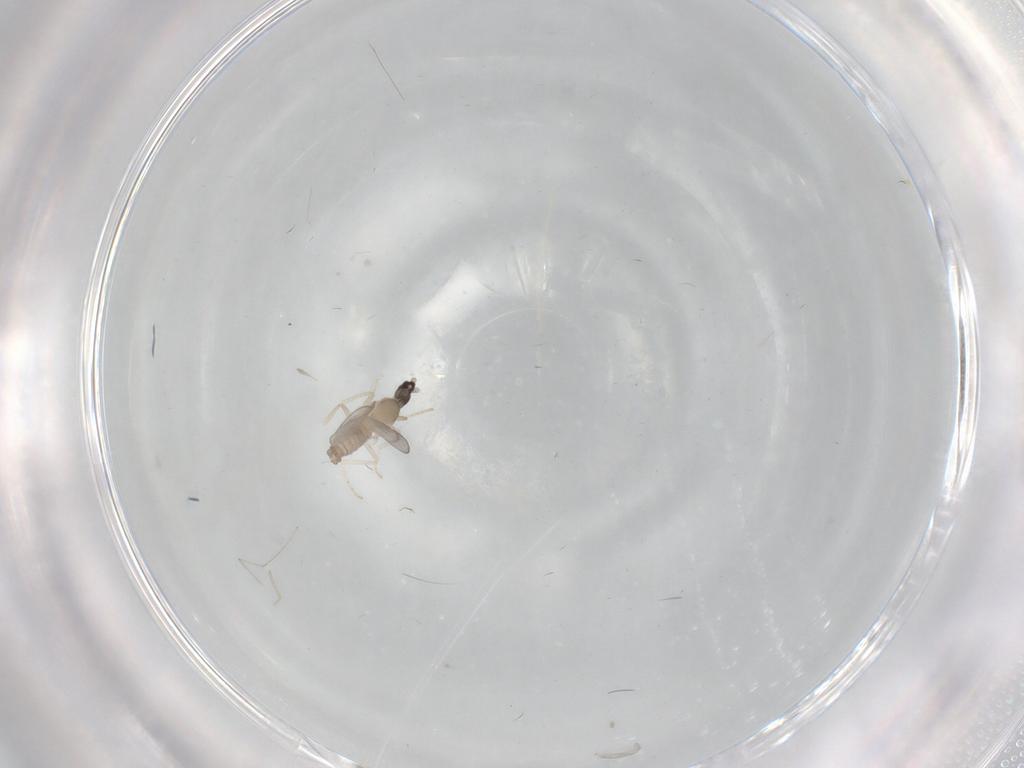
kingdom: Animalia
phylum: Arthropoda
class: Insecta
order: Diptera
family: Cecidomyiidae
